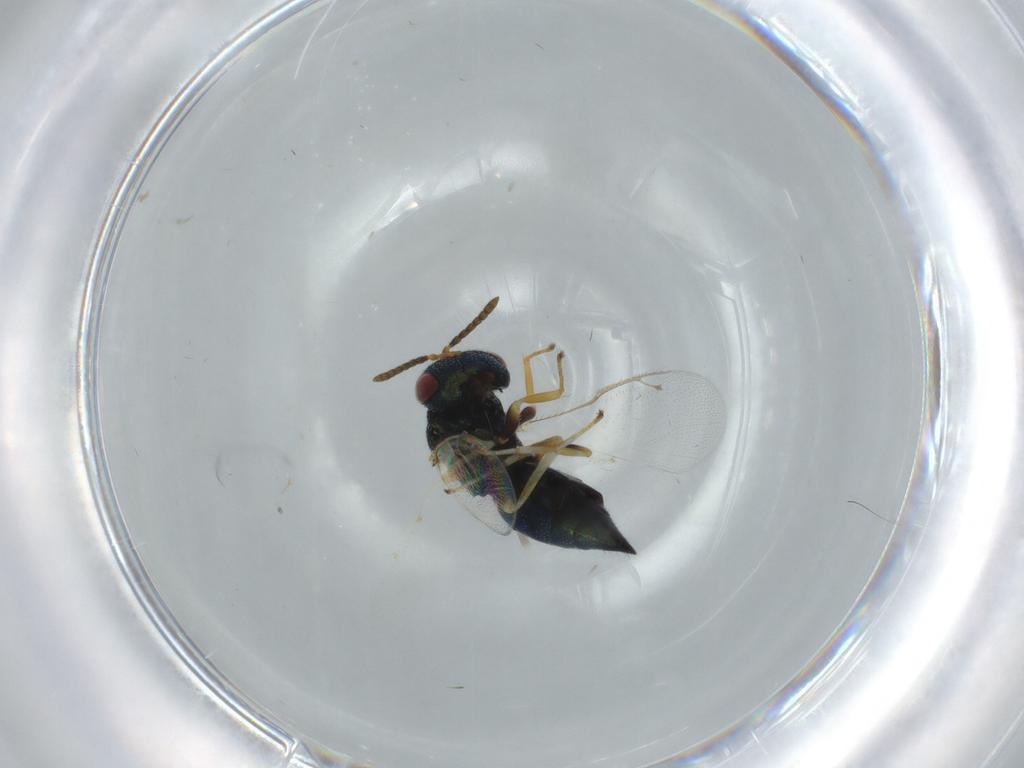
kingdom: Animalia
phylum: Arthropoda
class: Insecta
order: Hymenoptera
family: Pteromalidae
